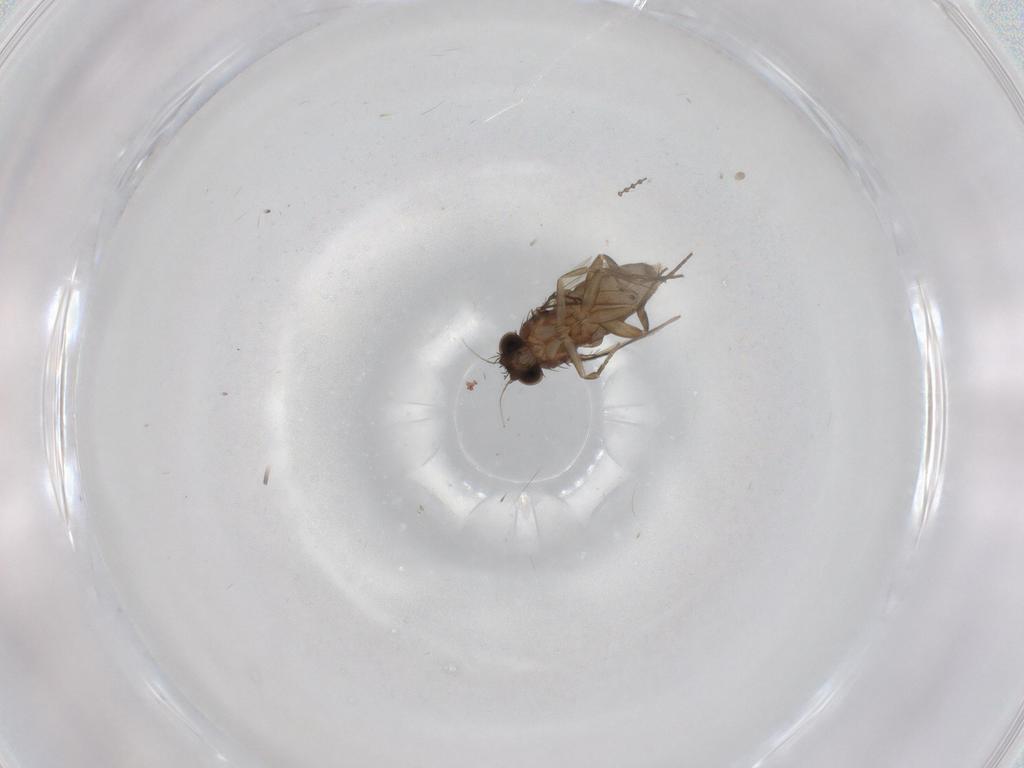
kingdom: Animalia
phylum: Arthropoda
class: Insecta
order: Diptera
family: Phoridae
